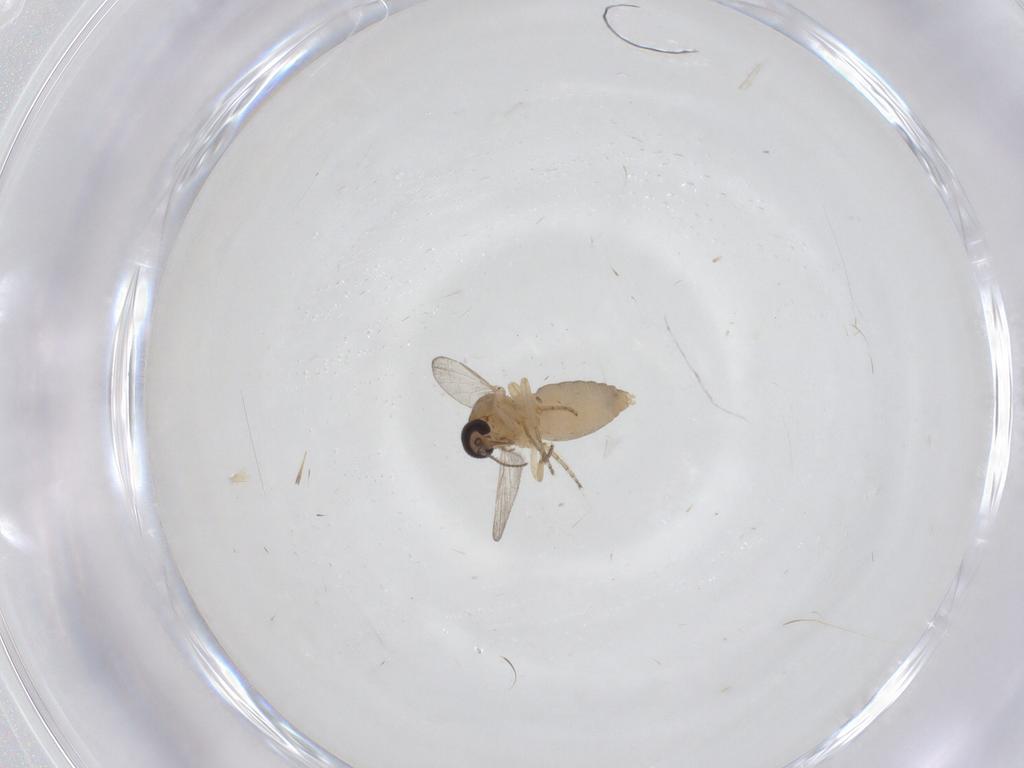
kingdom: Animalia
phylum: Arthropoda
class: Insecta
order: Diptera
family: Ceratopogonidae
